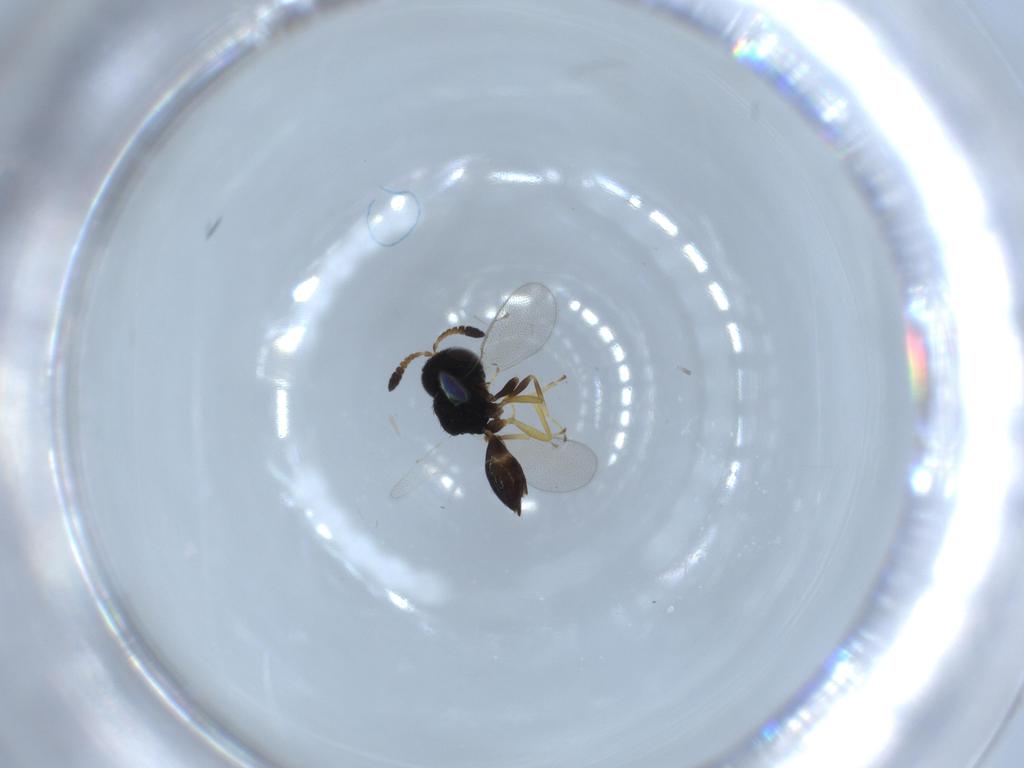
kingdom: Animalia
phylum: Arthropoda
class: Insecta
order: Hymenoptera
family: Pteromalidae
